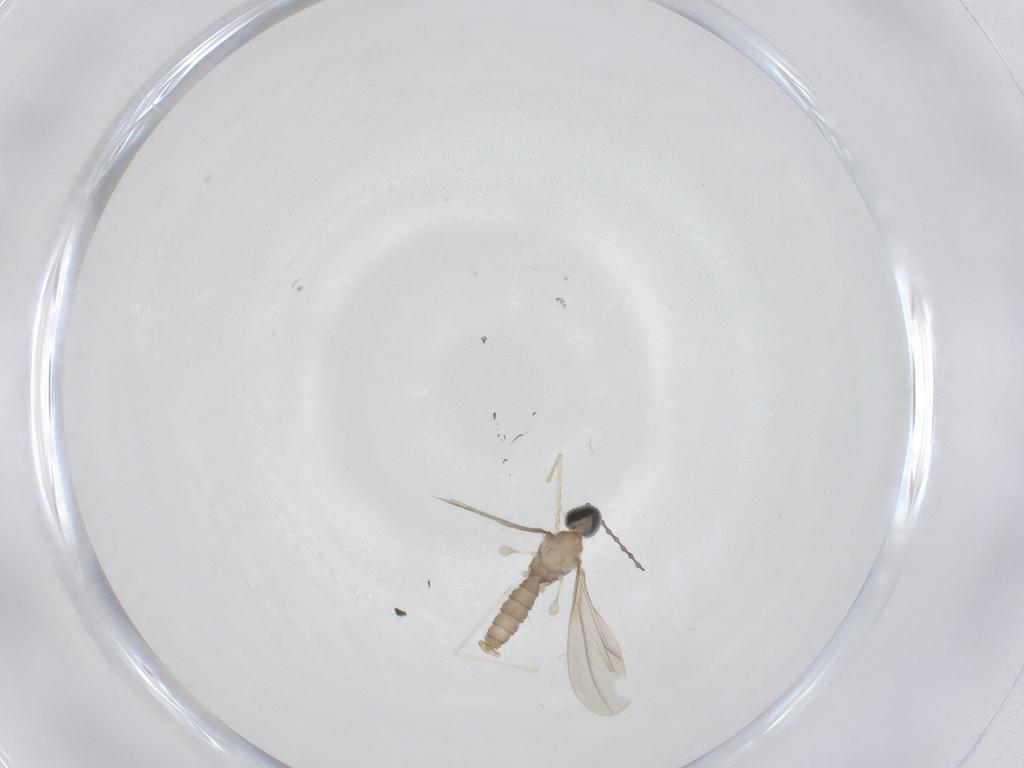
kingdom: Animalia
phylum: Arthropoda
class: Insecta
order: Diptera
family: Cecidomyiidae
